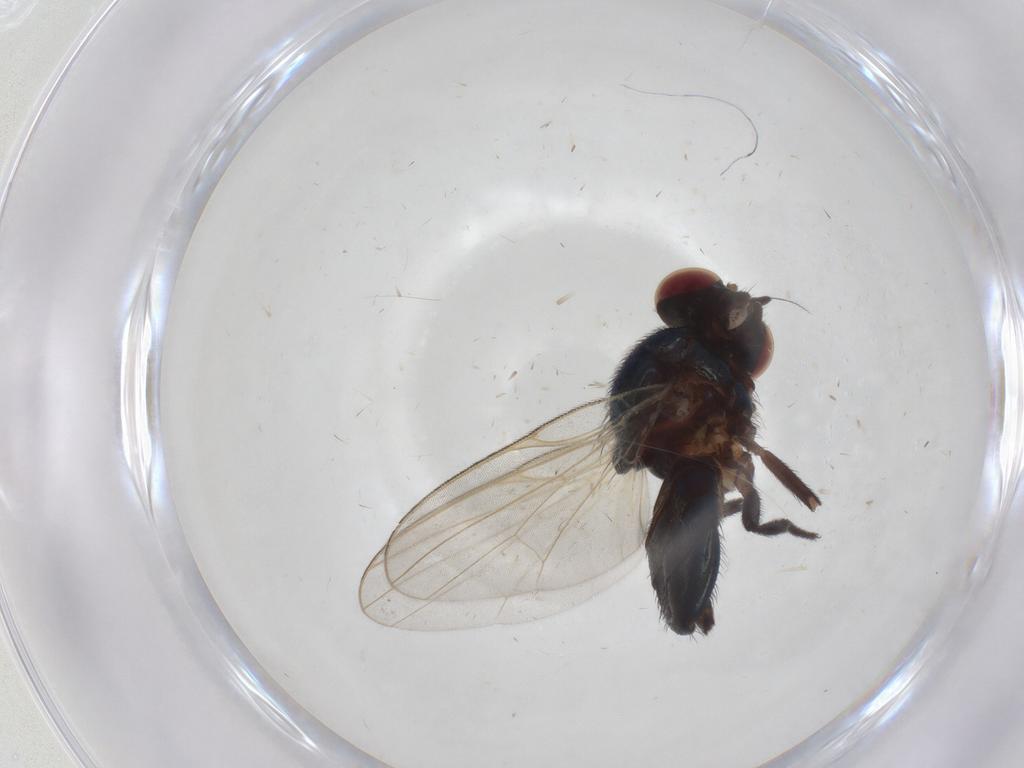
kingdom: Animalia
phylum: Arthropoda
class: Insecta
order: Diptera
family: Lonchaeidae
